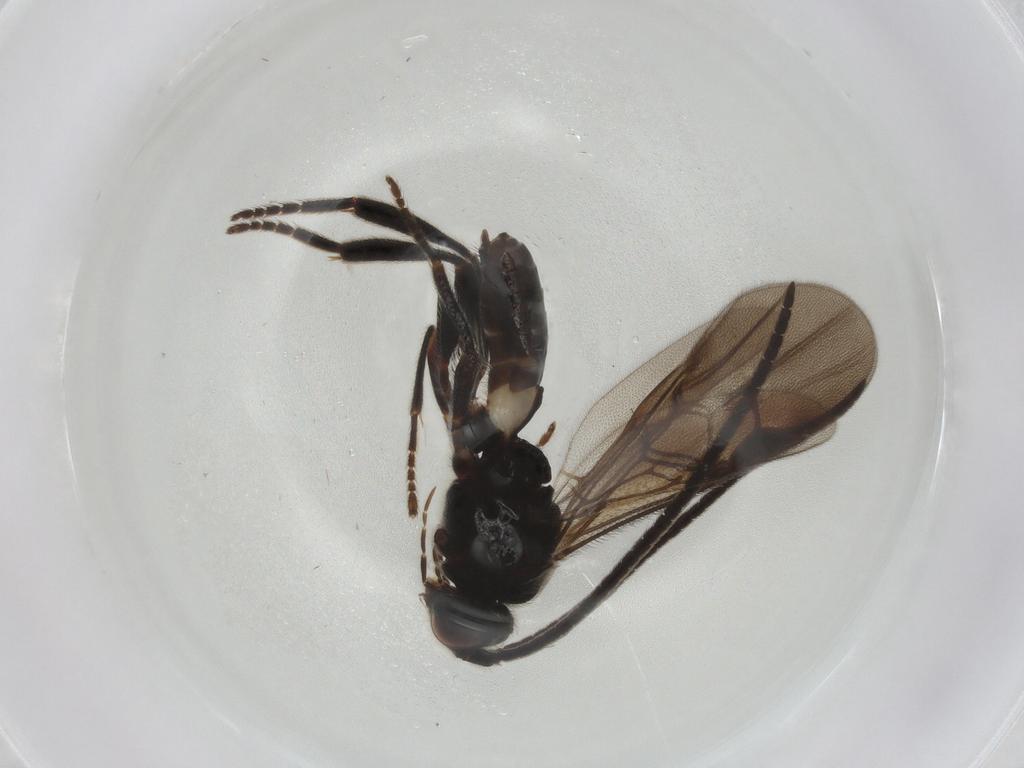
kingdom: Animalia
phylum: Arthropoda
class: Insecta
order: Hymenoptera
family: Braconidae
